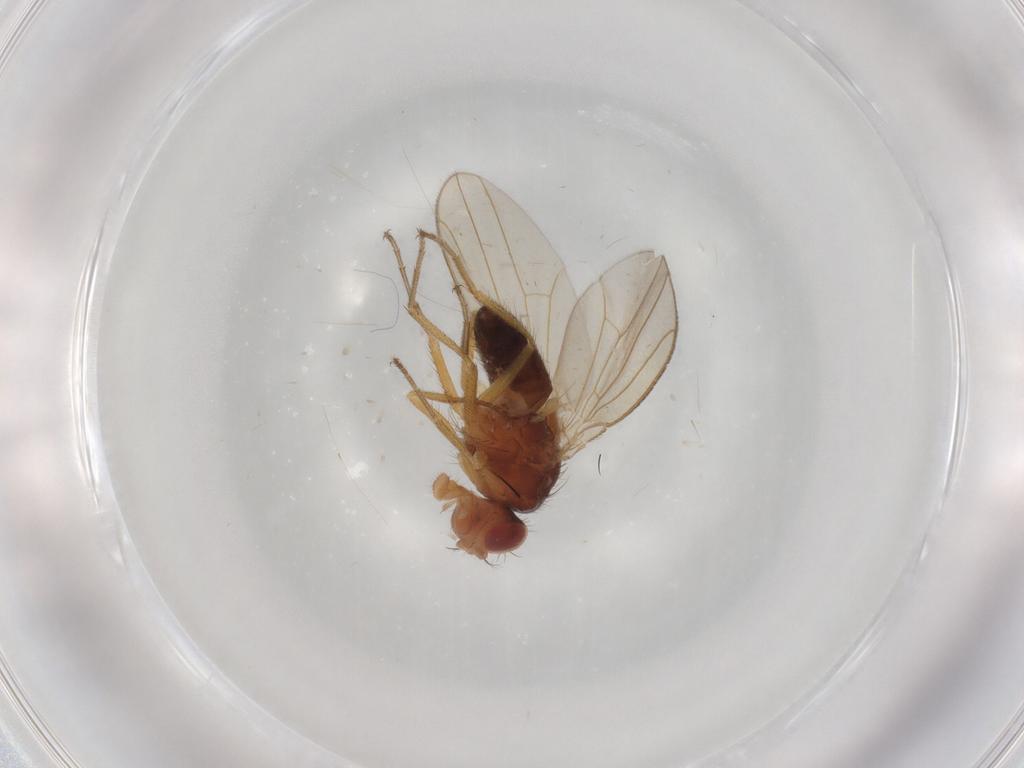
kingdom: Animalia
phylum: Arthropoda
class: Insecta
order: Diptera
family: Drosophilidae
